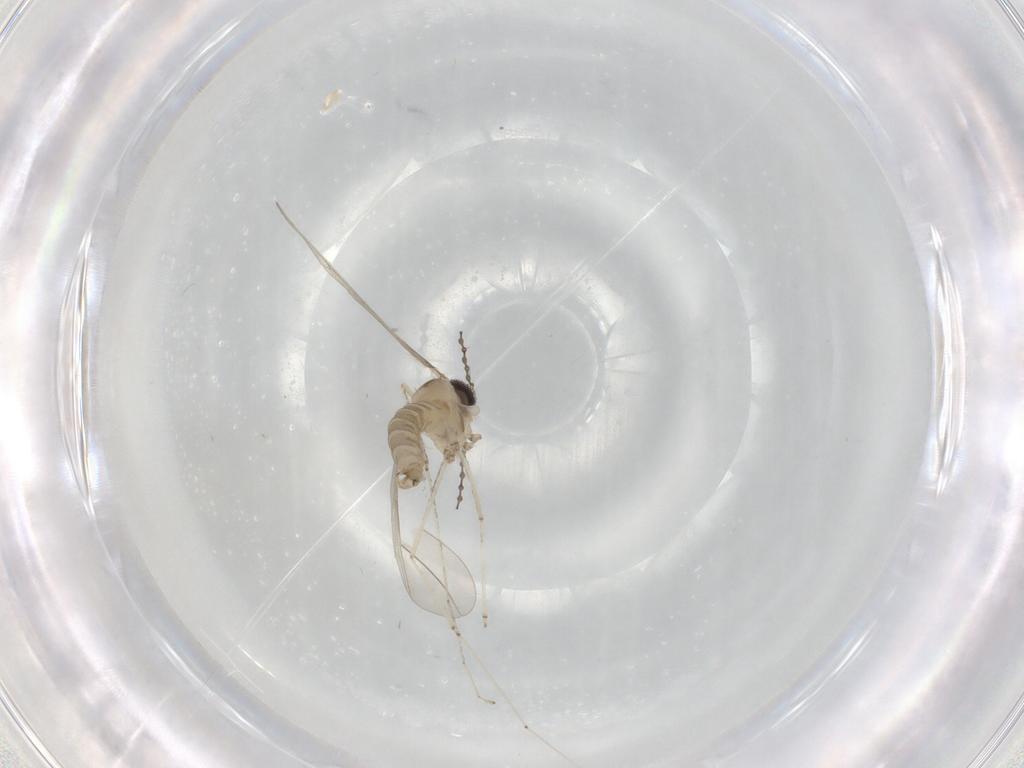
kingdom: Animalia
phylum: Arthropoda
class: Insecta
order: Diptera
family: Cecidomyiidae
